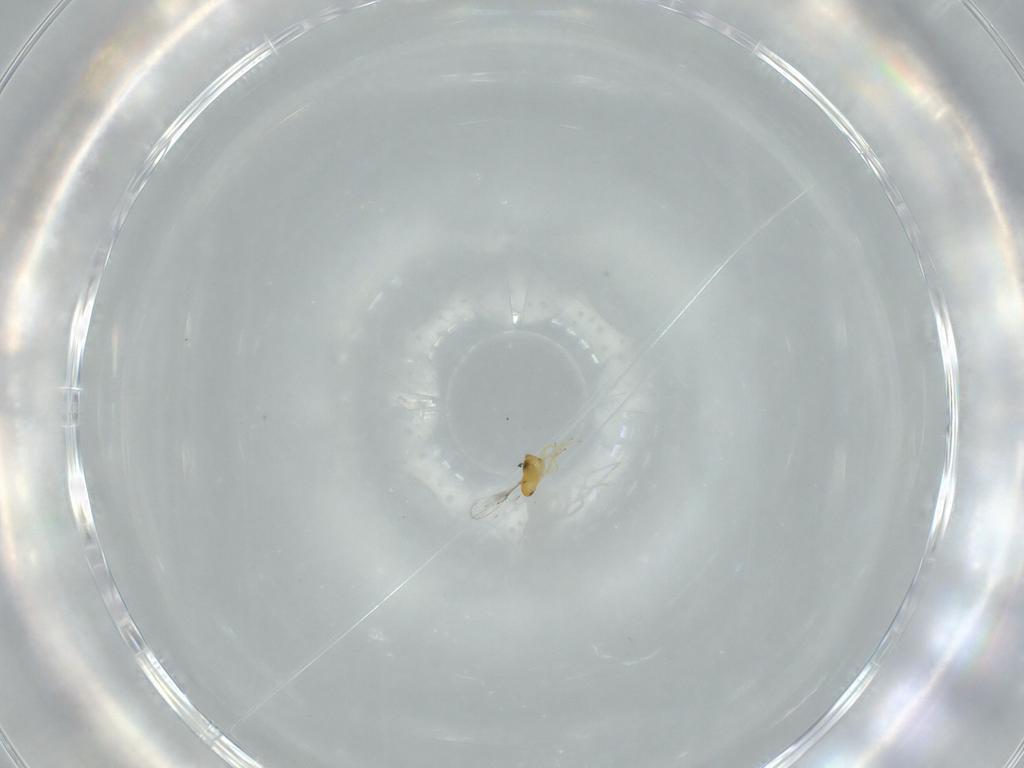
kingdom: Animalia
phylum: Arthropoda
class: Insecta
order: Hymenoptera
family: Trichogrammatidae
